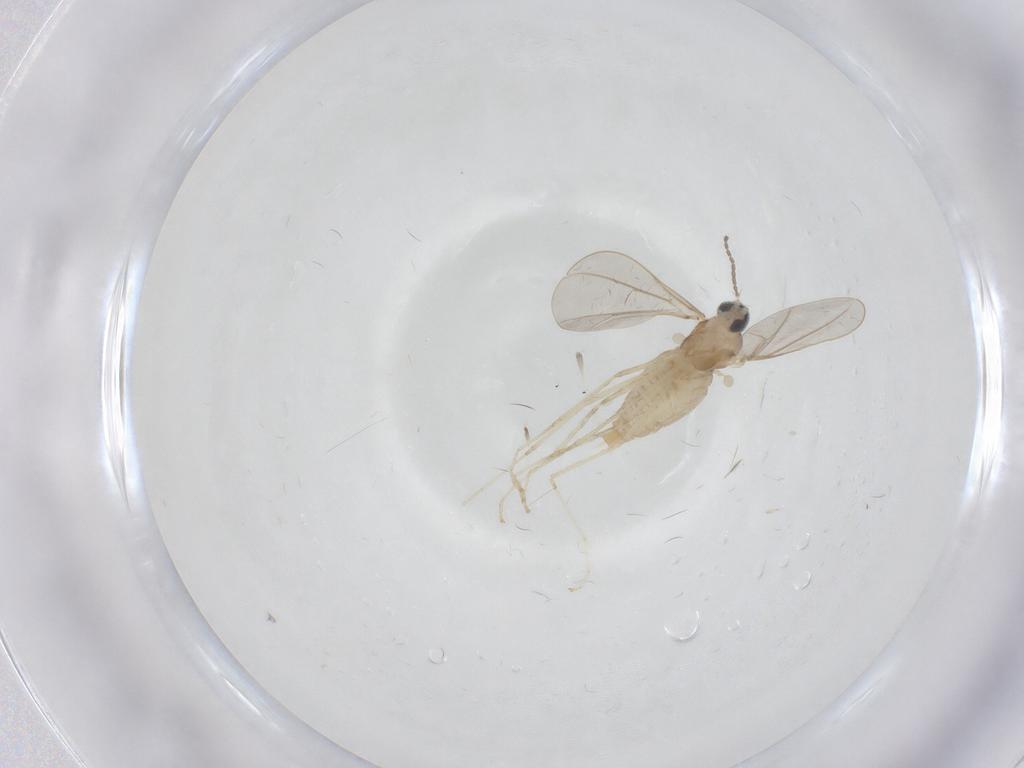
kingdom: Animalia
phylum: Arthropoda
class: Insecta
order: Diptera
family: Cecidomyiidae
